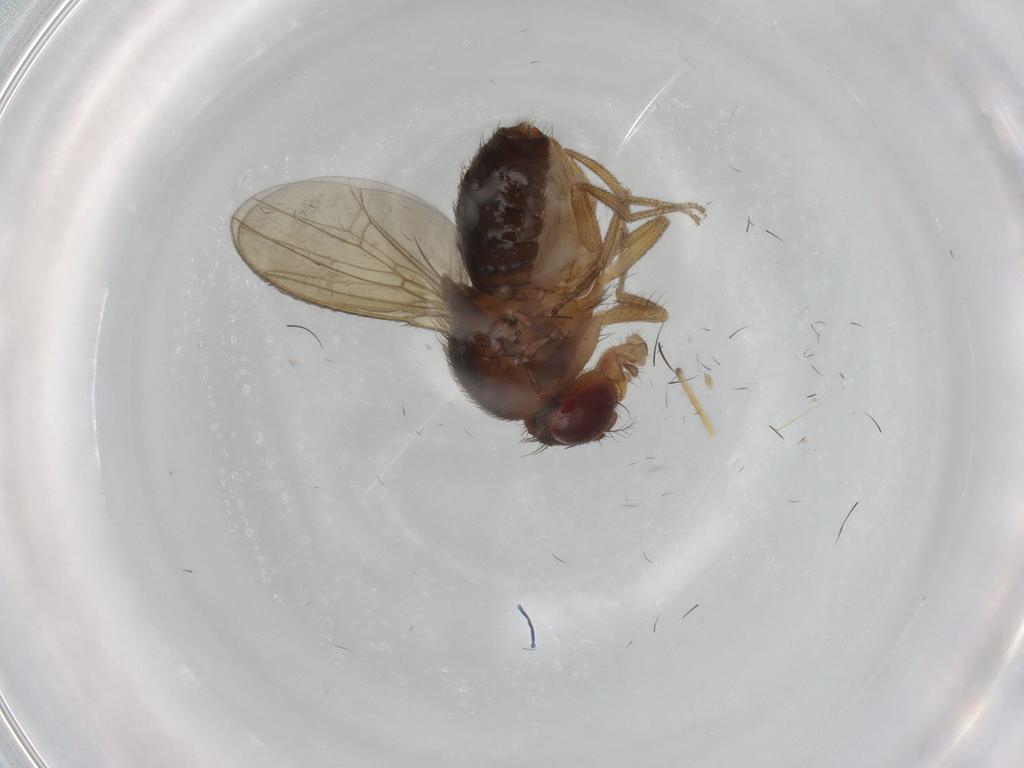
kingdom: Animalia
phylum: Arthropoda
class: Insecta
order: Diptera
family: Drosophilidae
